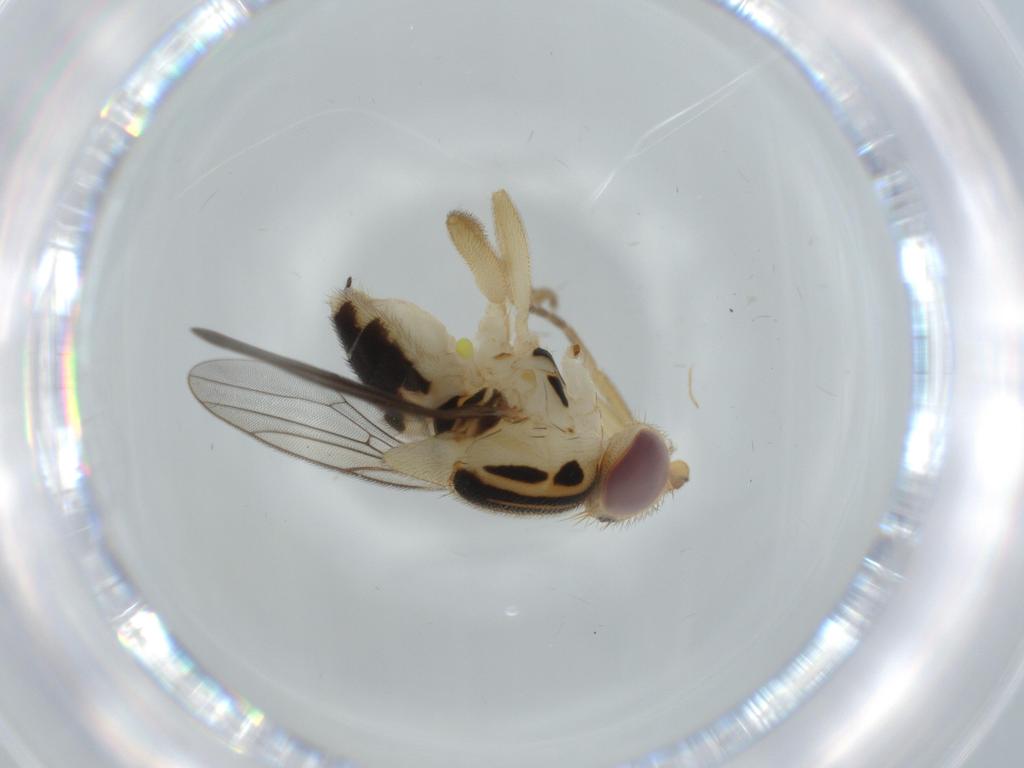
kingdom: Animalia
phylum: Arthropoda
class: Insecta
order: Diptera
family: Chloropidae
